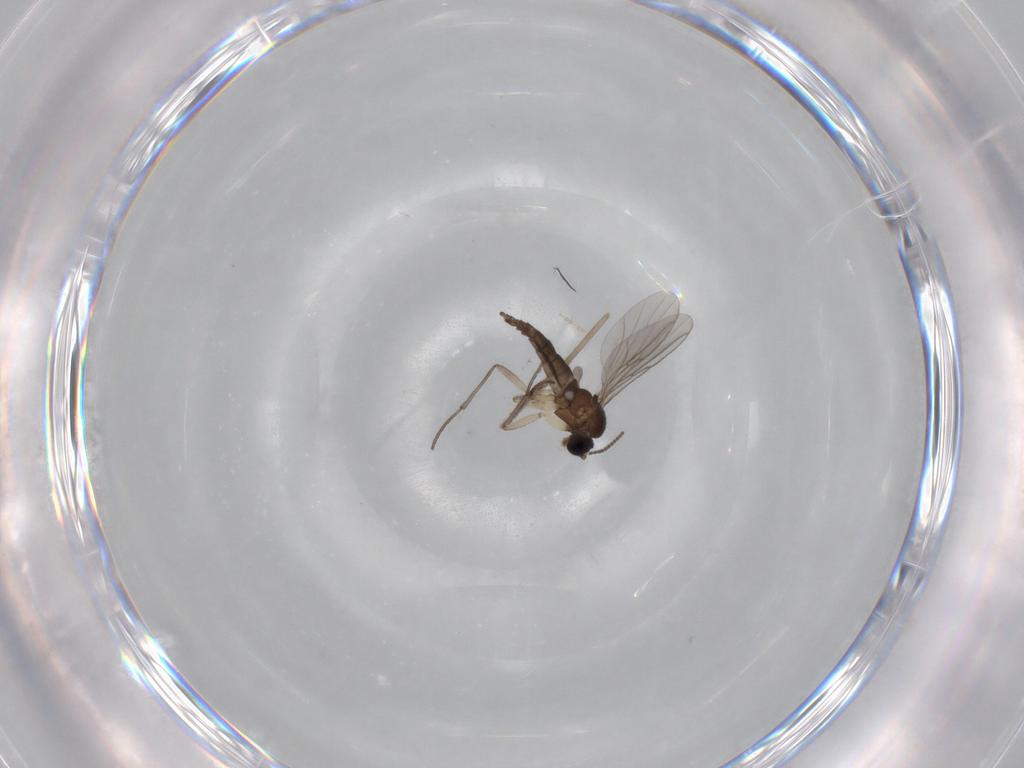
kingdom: Animalia
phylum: Arthropoda
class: Insecta
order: Diptera
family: Sciaridae
